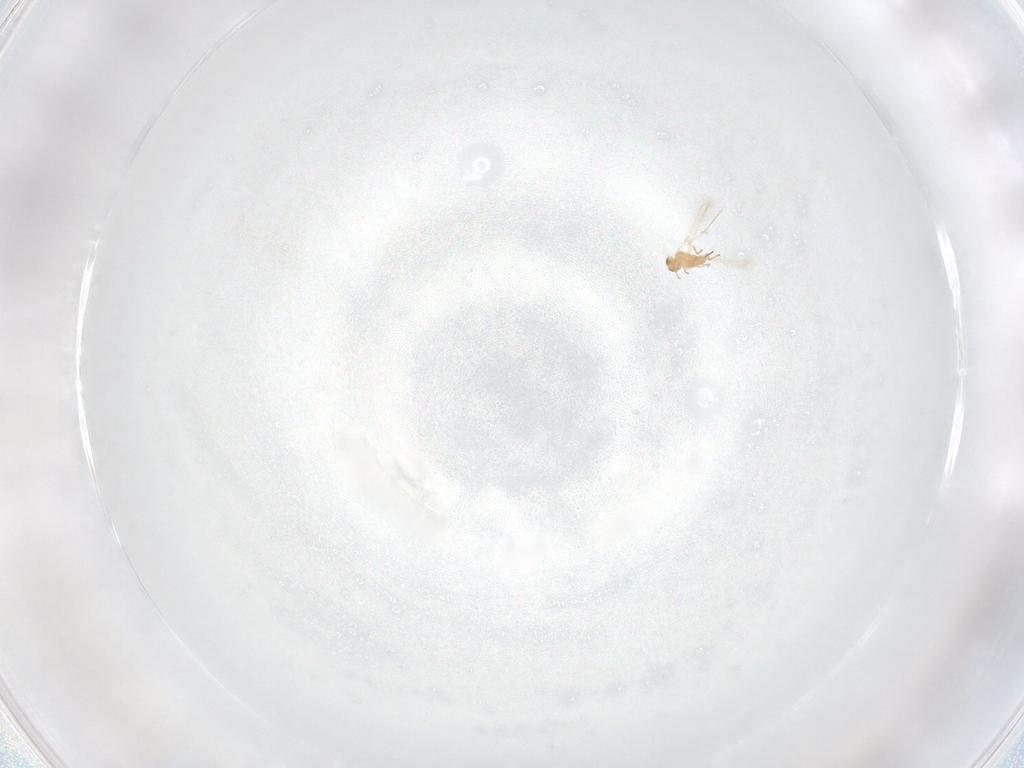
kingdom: Animalia
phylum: Arthropoda
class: Insecta
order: Hymenoptera
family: Mymaridae
